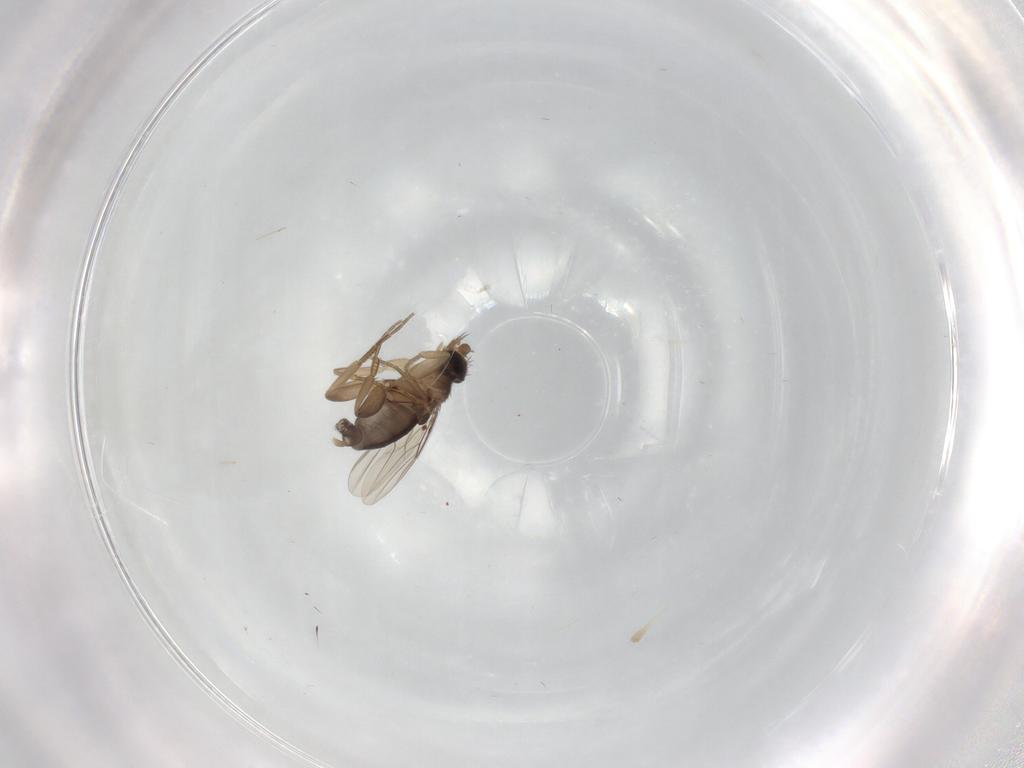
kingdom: Animalia
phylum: Arthropoda
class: Insecta
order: Diptera
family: Phoridae
